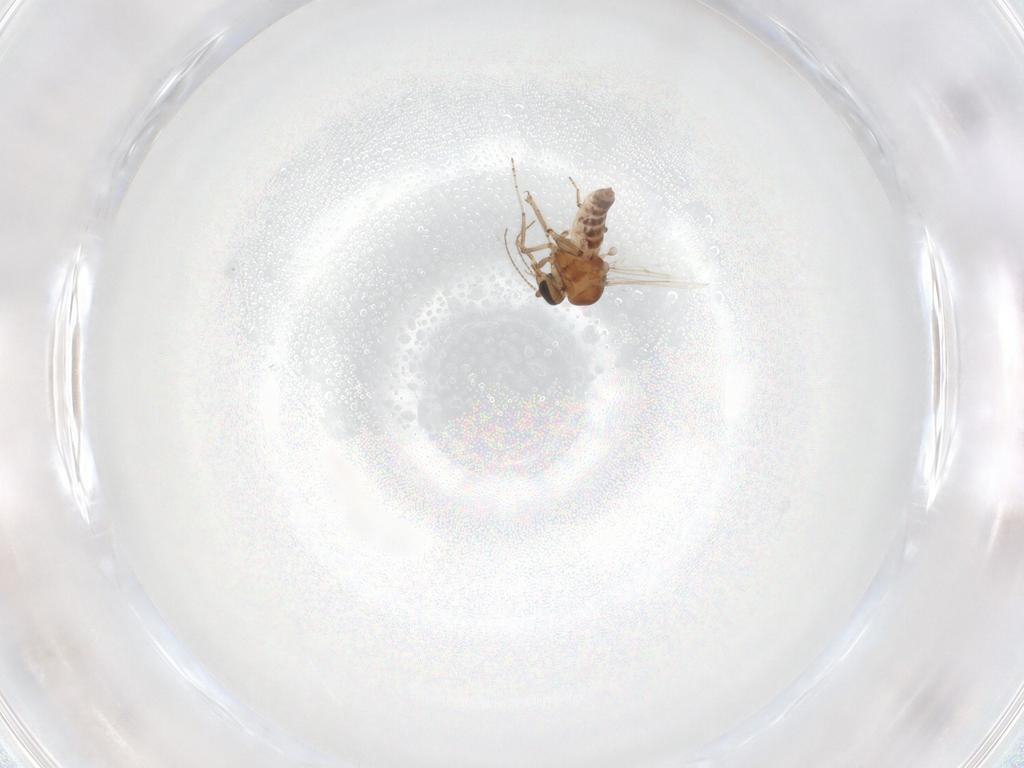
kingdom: Animalia
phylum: Arthropoda
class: Insecta
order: Diptera
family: Ceratopogonidae
